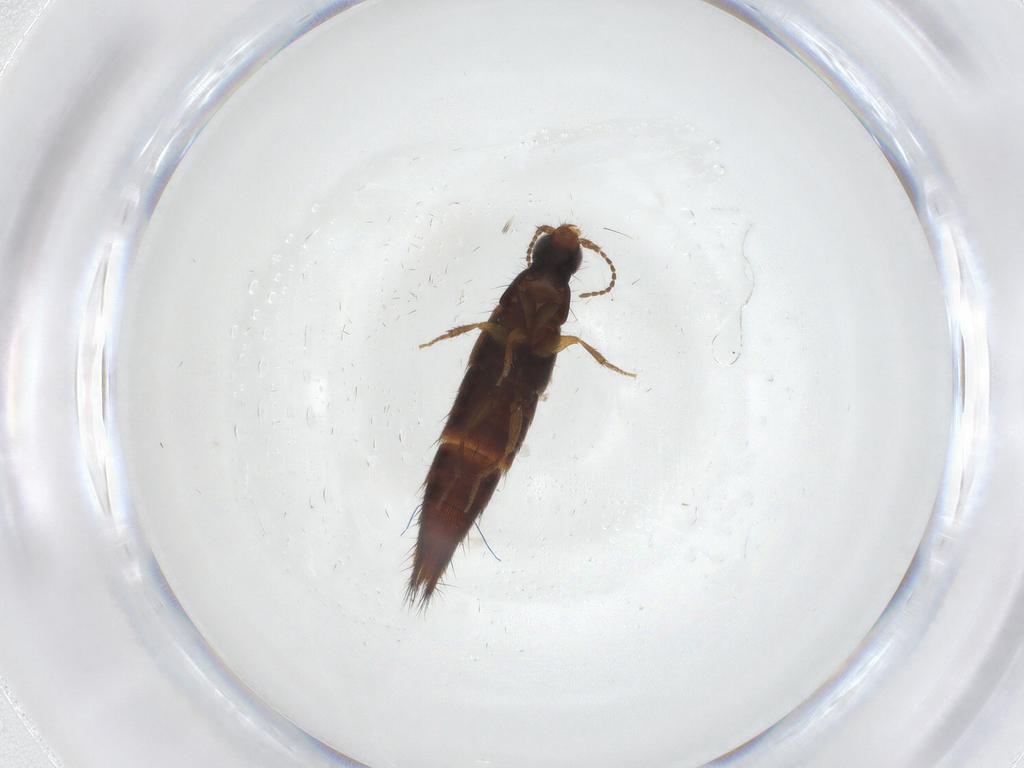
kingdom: Animalia
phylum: Arthropoda
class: Insecta
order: Coleoptera
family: Staphylinidae
